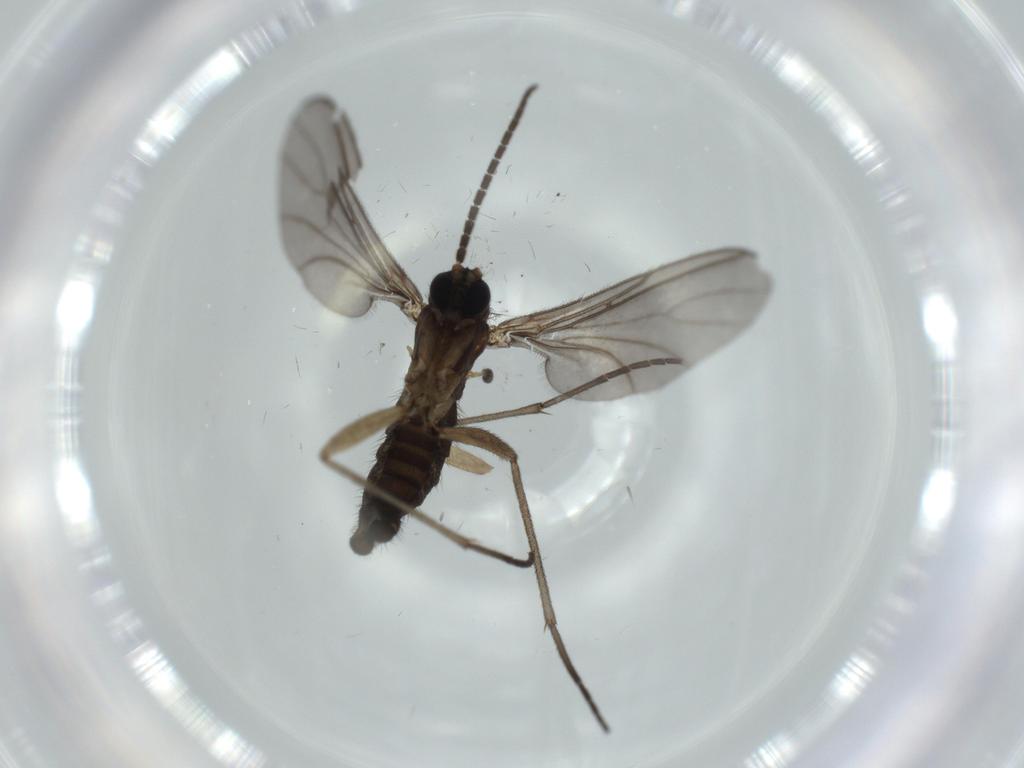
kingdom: Animalia
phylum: Arthropoda
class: Insecta
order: Diptera
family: Sciaridae
